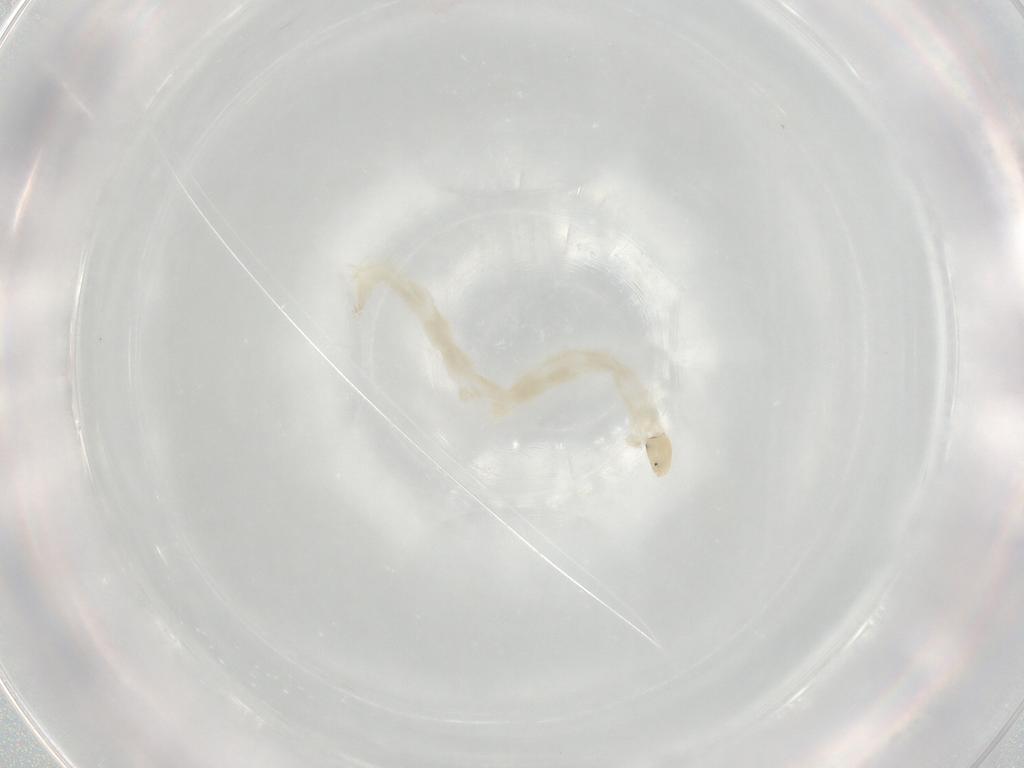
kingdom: Animalia
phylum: Arthropoda
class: Insecta
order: Diptera
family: Chironomidae
